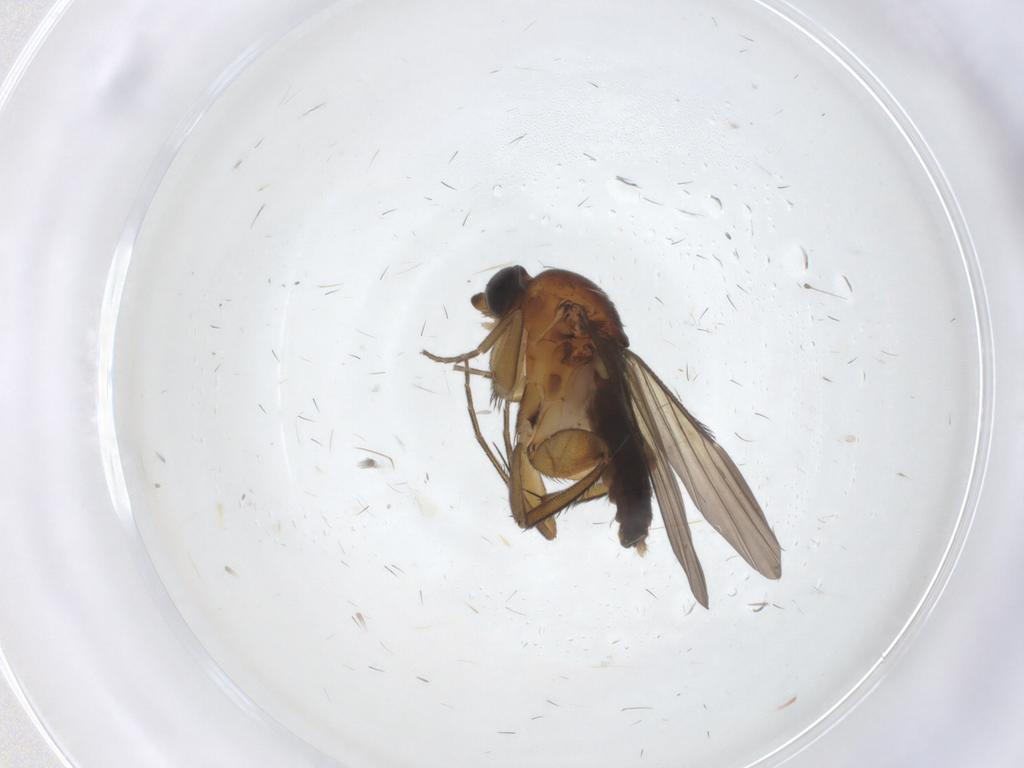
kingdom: Animalia
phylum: Arthropoda
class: Insecta
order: Diptera
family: Phoridae
